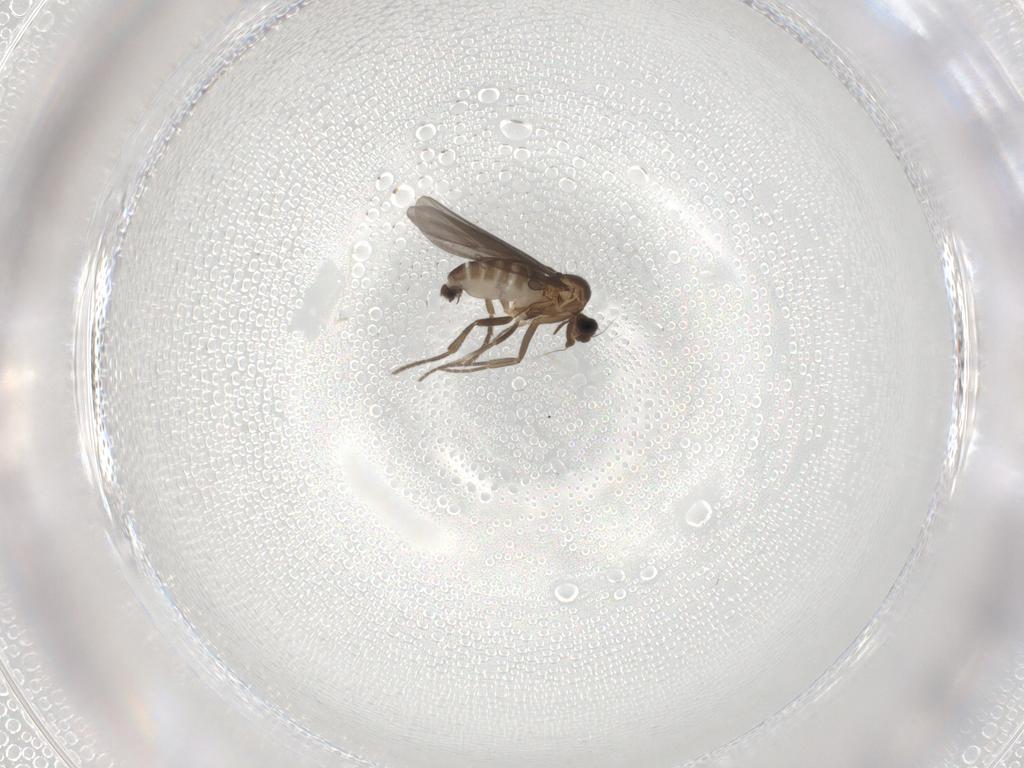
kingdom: Animalia
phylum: Arthropoda
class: Insecta
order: Diptera
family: Phoridae
